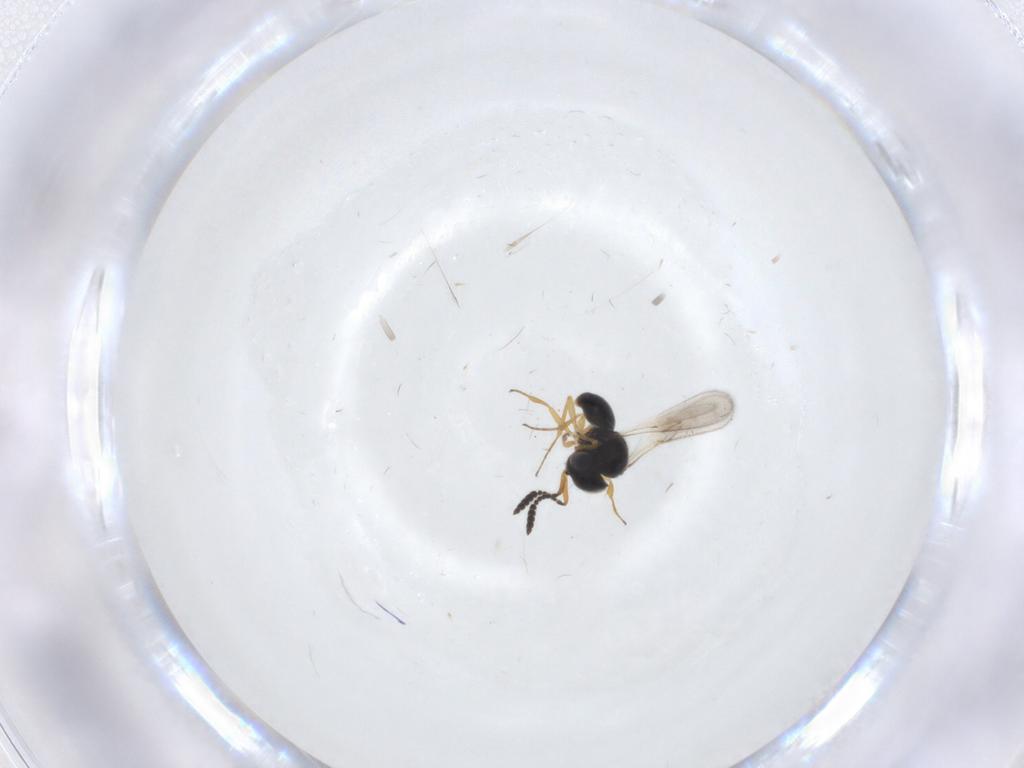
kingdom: Animalia
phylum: Arthropoda
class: Insecta
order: Hymenoptera
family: Scelionidae
